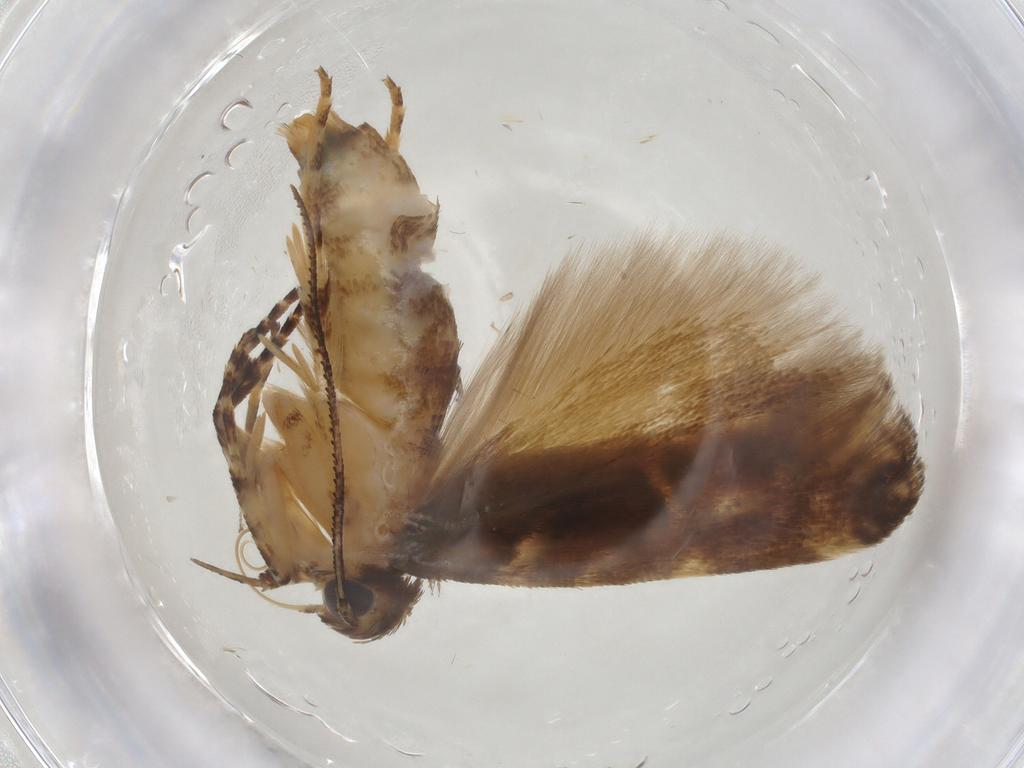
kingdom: Animalia
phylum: Arthropoda
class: Insecta
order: Lepidoptera
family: Gelechiidae
